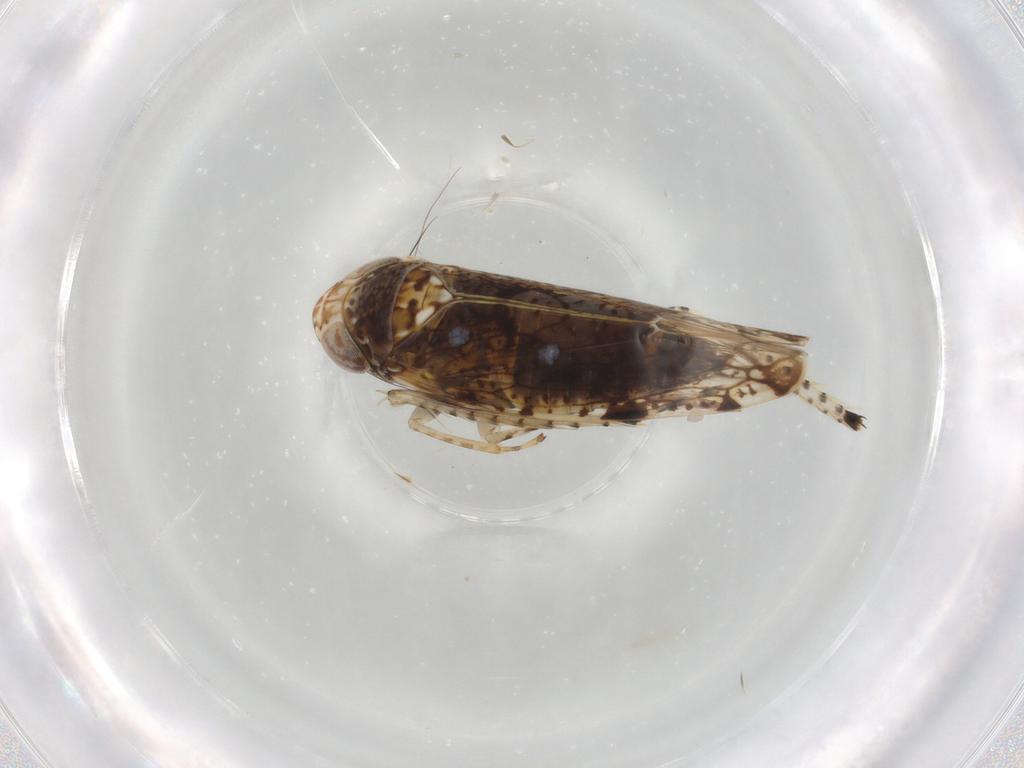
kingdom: Animalia
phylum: Arthropoda
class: Insecta
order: Hemiptera
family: Cicadellidae
